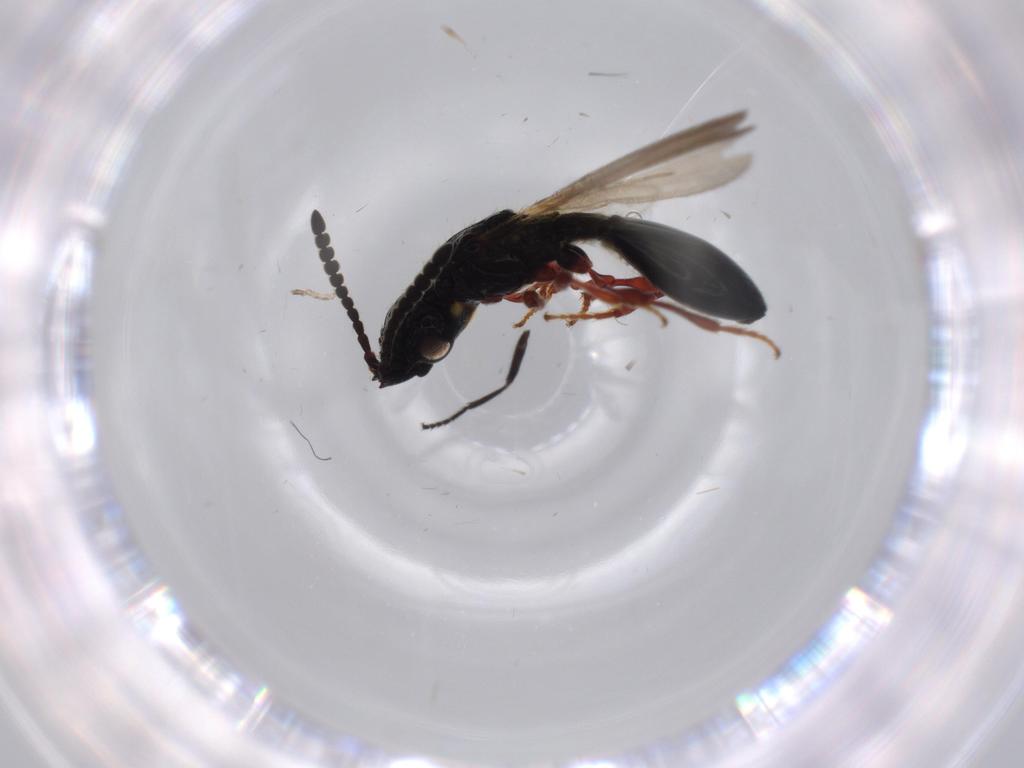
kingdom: Animalia
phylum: Arthropoda
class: Insecta
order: Hymenoptera
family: Diapriidae
